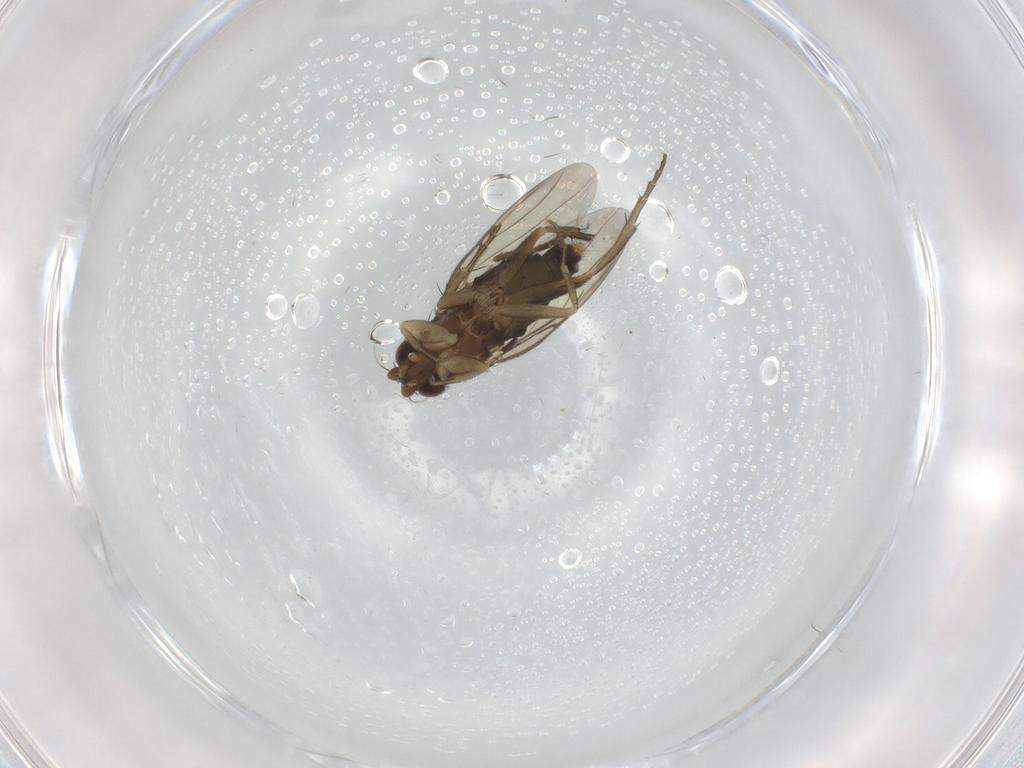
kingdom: Animalia
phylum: Arthropoda
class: Insecta
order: Diptera
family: Phoridae
